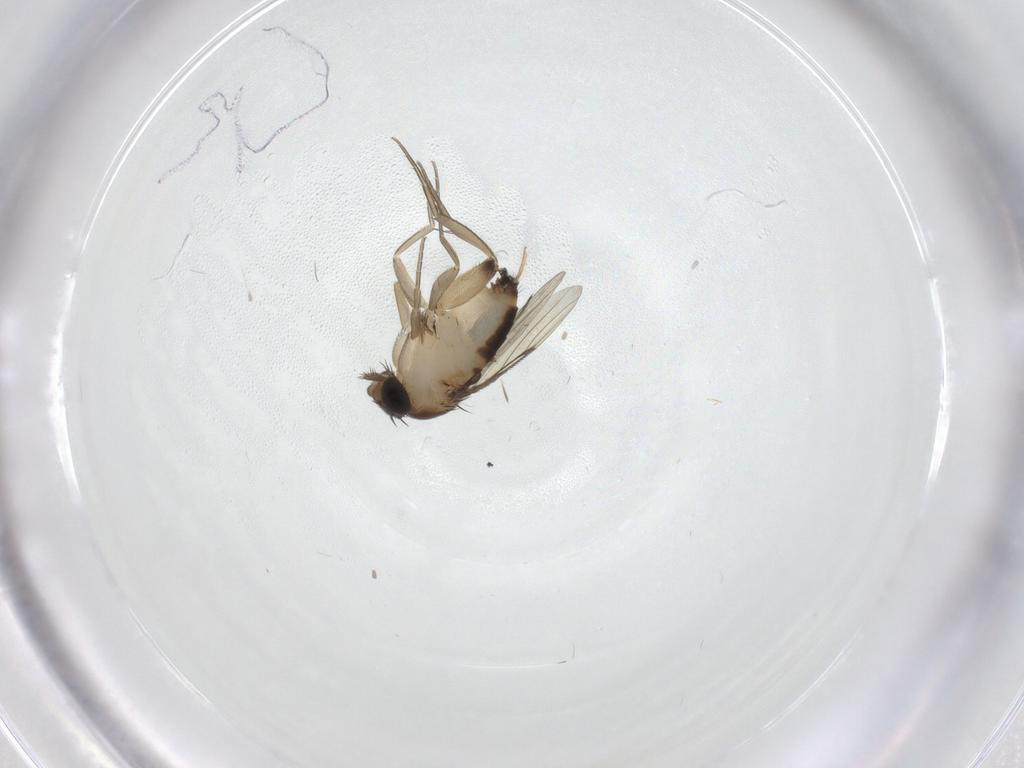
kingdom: Animalia
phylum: Arthropoda
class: Insecta
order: Diptera
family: Phoridae
